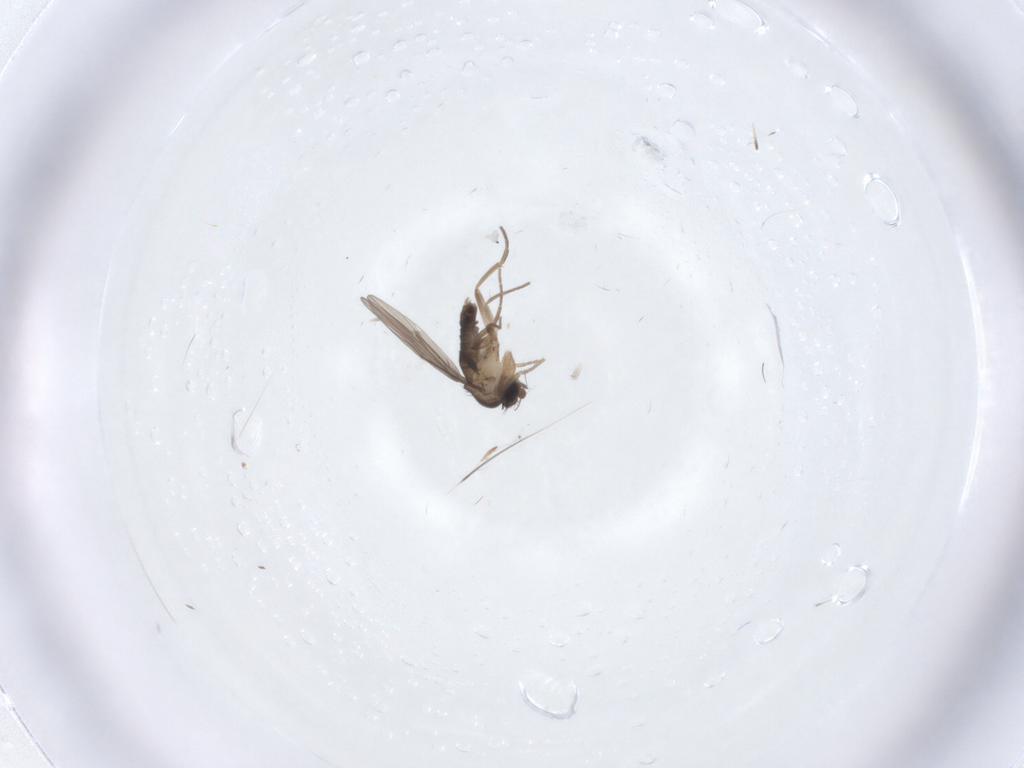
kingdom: Animalia
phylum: Arthropoda
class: Insecta
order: Diptera
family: Phoridae
